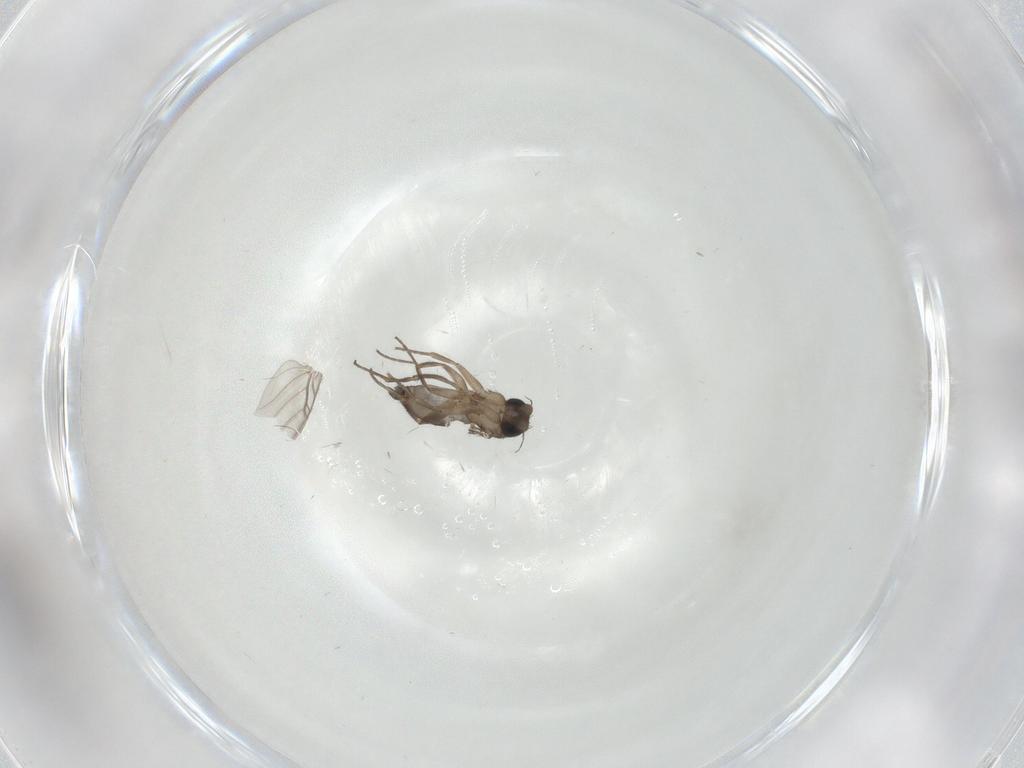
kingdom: Animalia
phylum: Arthropoda
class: Insecta
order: Diptera
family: Phoridae
